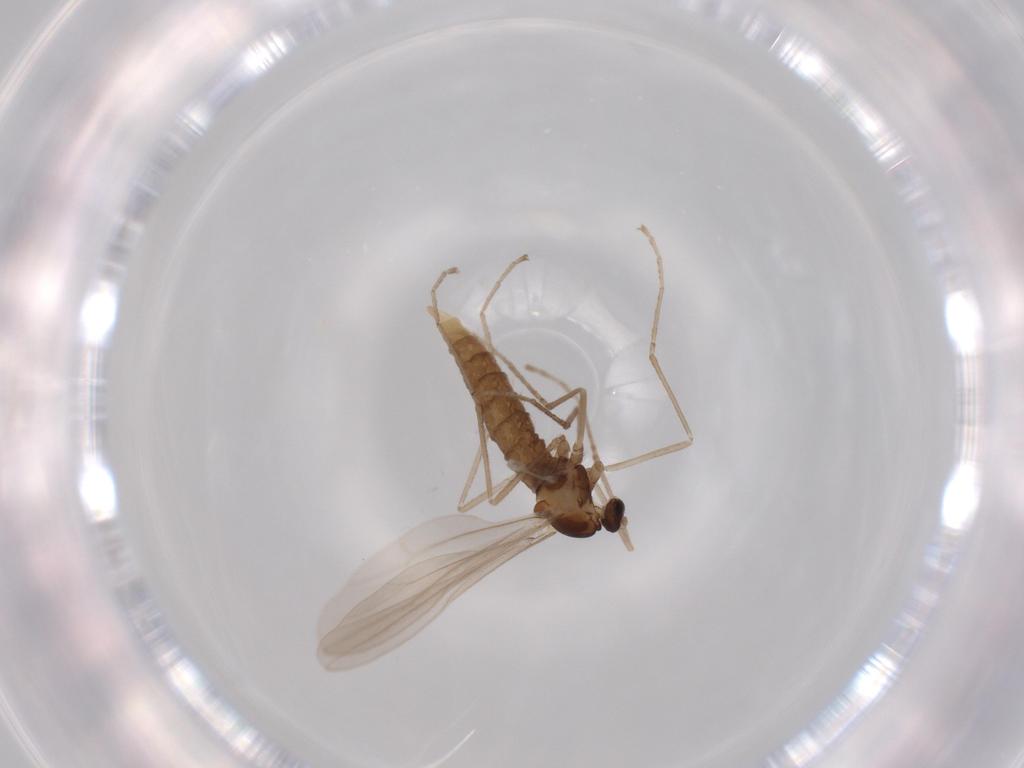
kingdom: Animalia
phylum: Arthropoda
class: Insecta
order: Diptera
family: Cecidomyiidae
